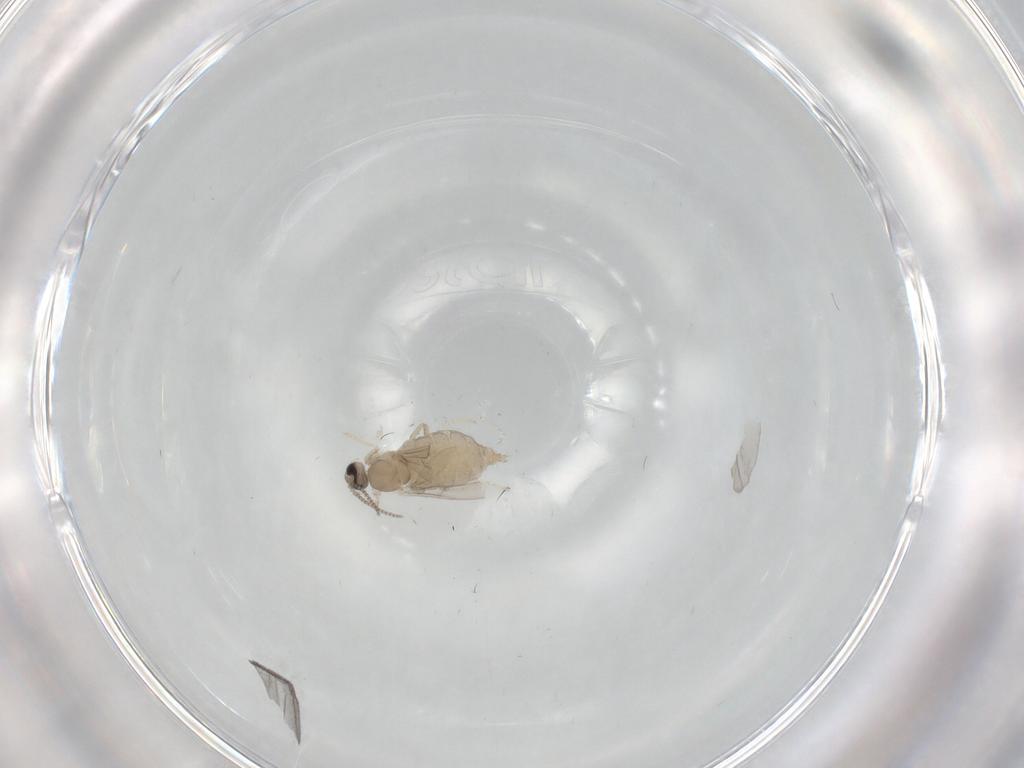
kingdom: Animalia
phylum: Arthropoda
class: Insecta
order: Diptera
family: Cecidomyiidae
